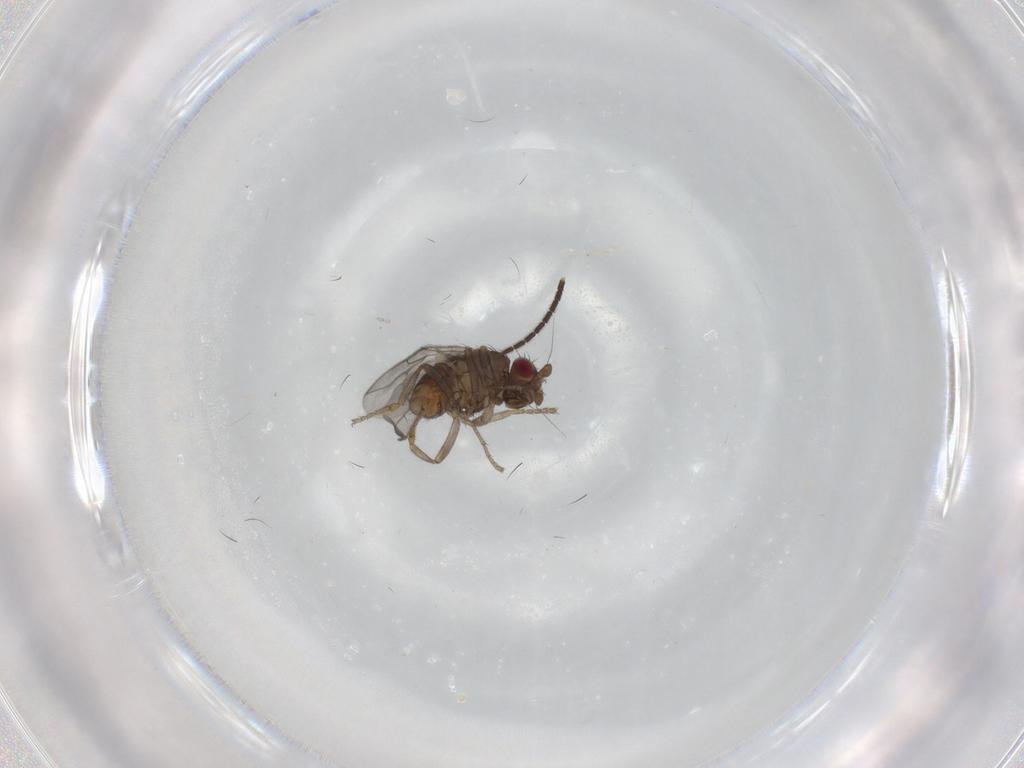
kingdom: Animalia
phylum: Arthropoda
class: Insecta
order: Diptera
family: Sphaeroceridae
